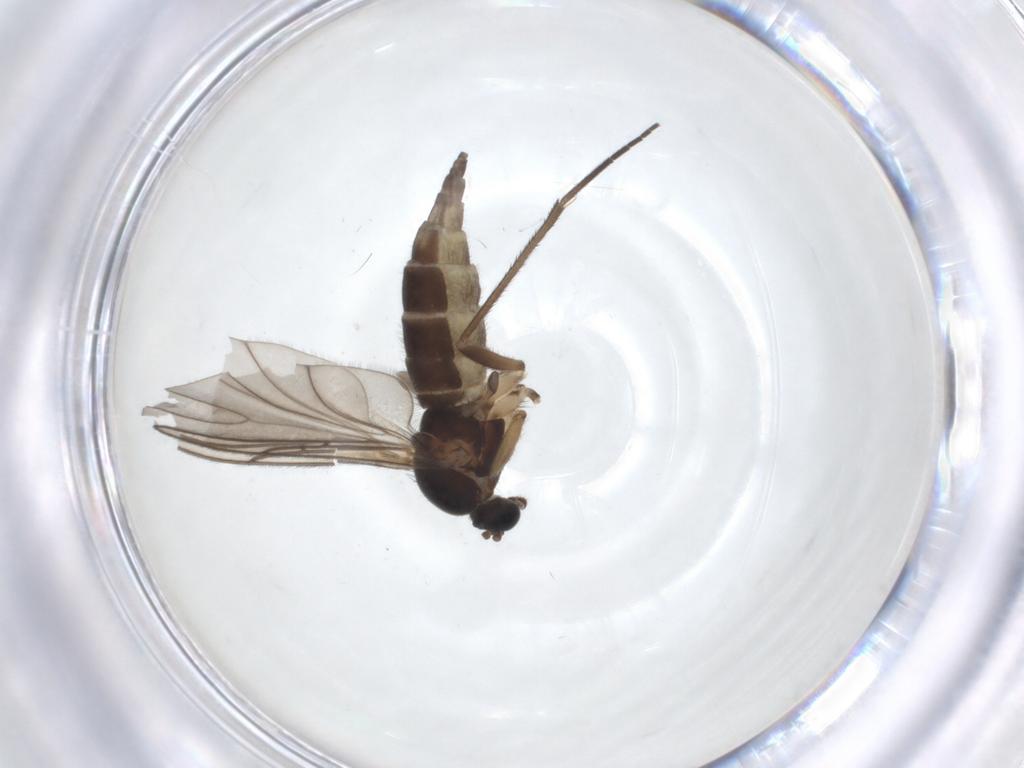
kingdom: Animalia
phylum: Arthropoda
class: Insecta
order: Diptera
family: Sciaridae
